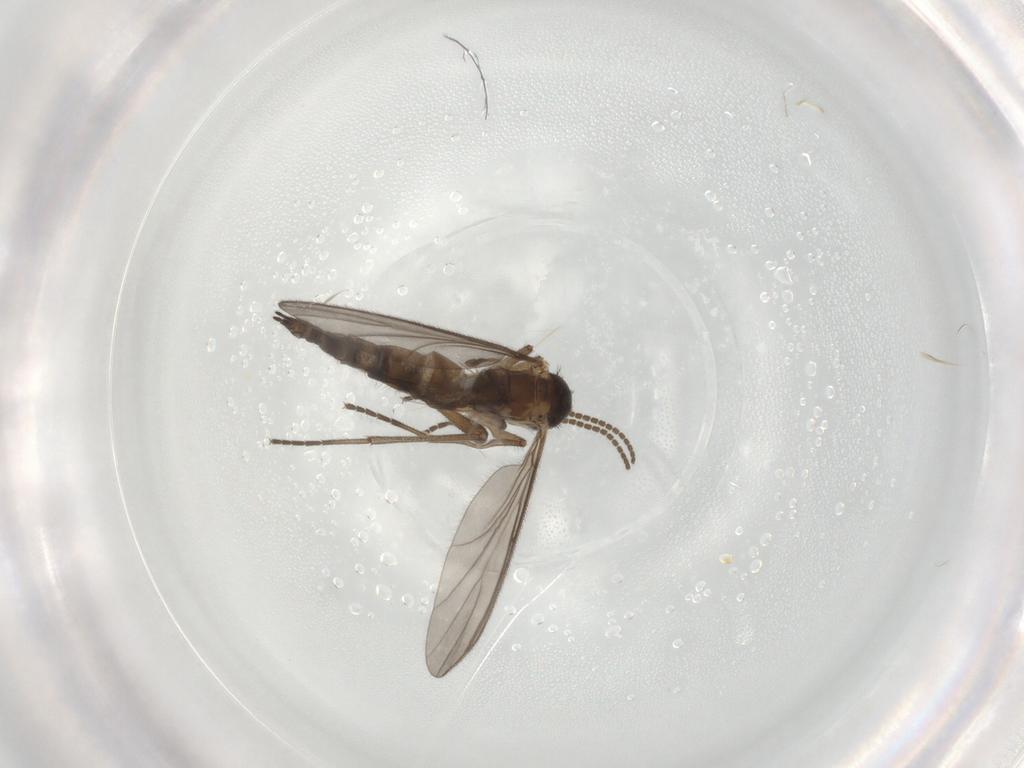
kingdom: Animalia
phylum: Arthropoda
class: Insecta
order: Diptera
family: Sciaridae
